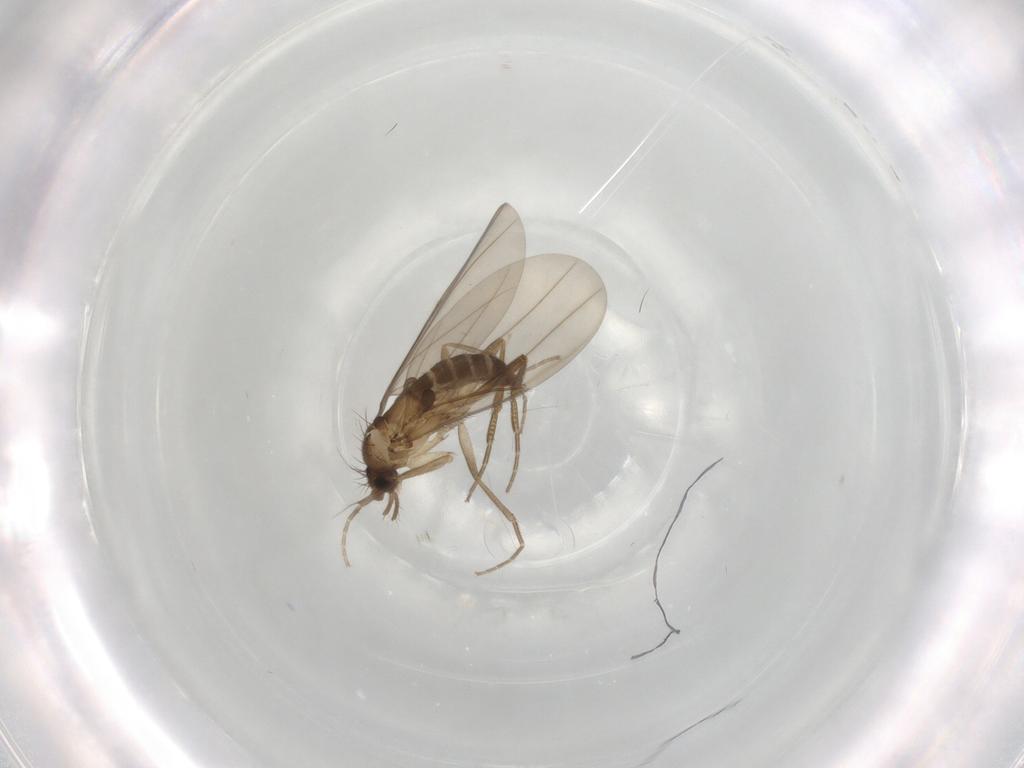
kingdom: Animalia
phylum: Arthropoda
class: Insecta
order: Diptera
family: Phoridae
